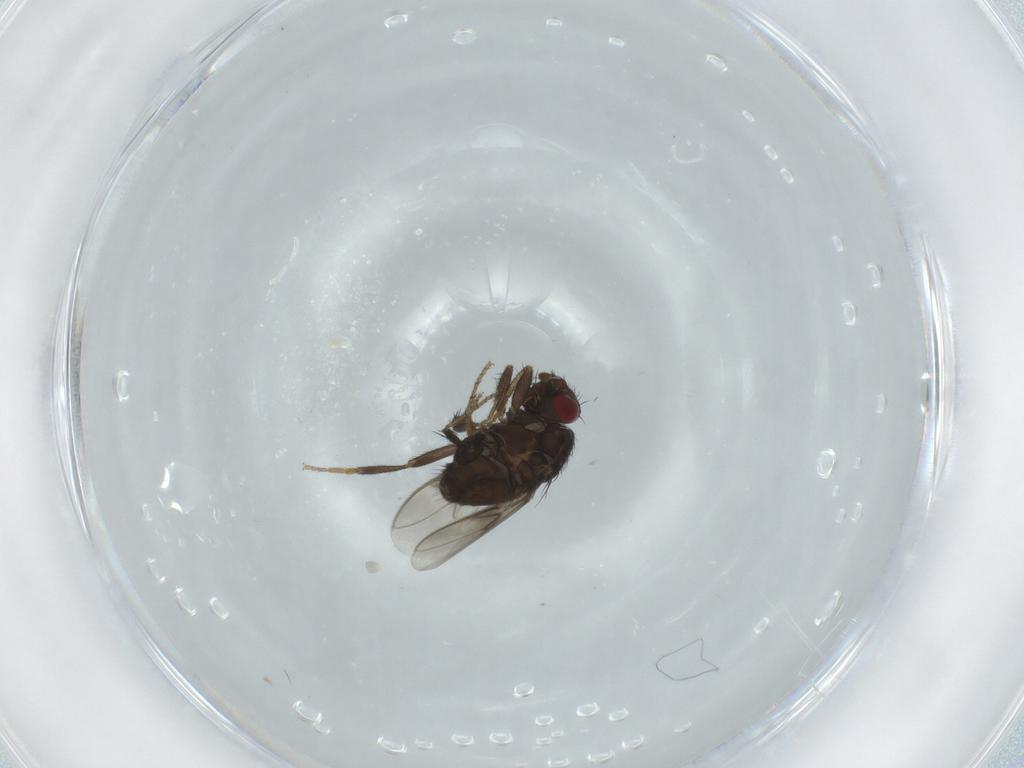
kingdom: Animalia
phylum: Arthropoda
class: Insecta
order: Diptera
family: Sphaeroceridae
